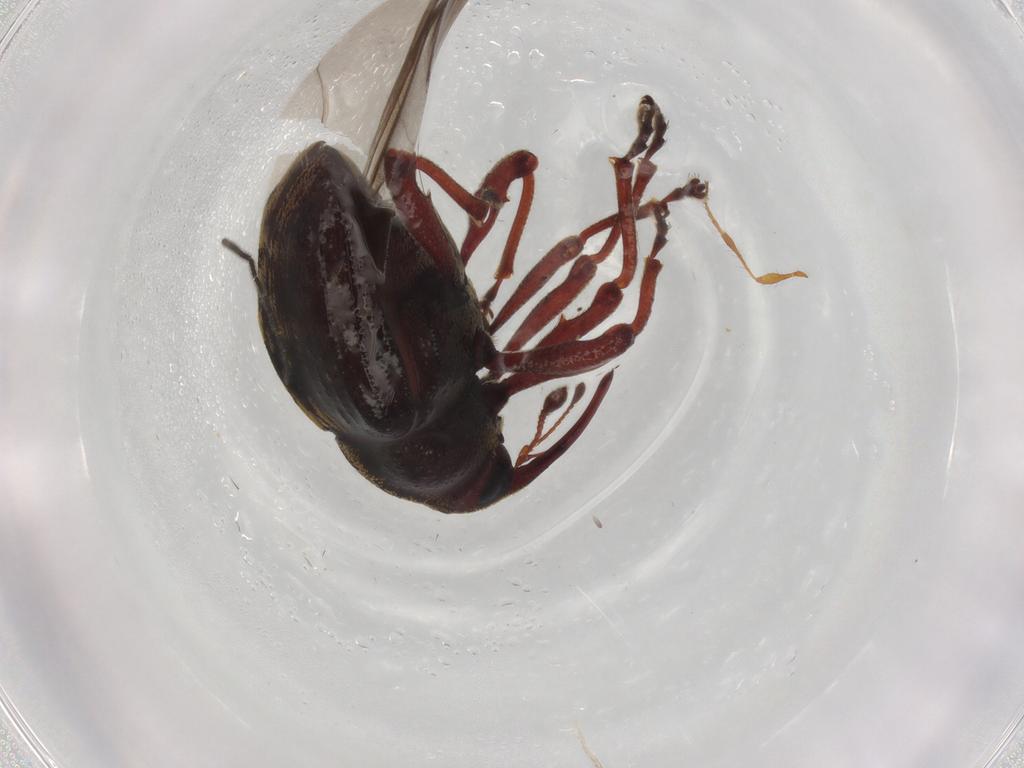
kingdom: Animalia
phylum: Arthropoda
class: Insecta
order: Coleoptera
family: Curculionidae
